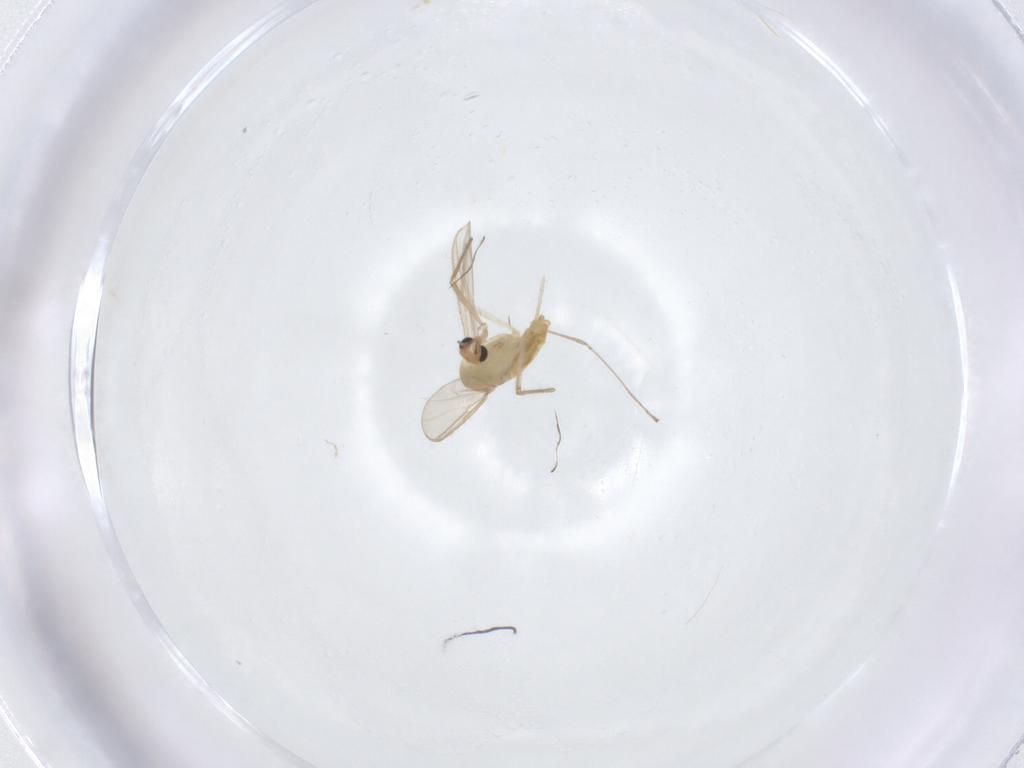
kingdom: Animalia
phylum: Arthropoda
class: Insecta
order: Diptera
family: Cecidomyiidae
